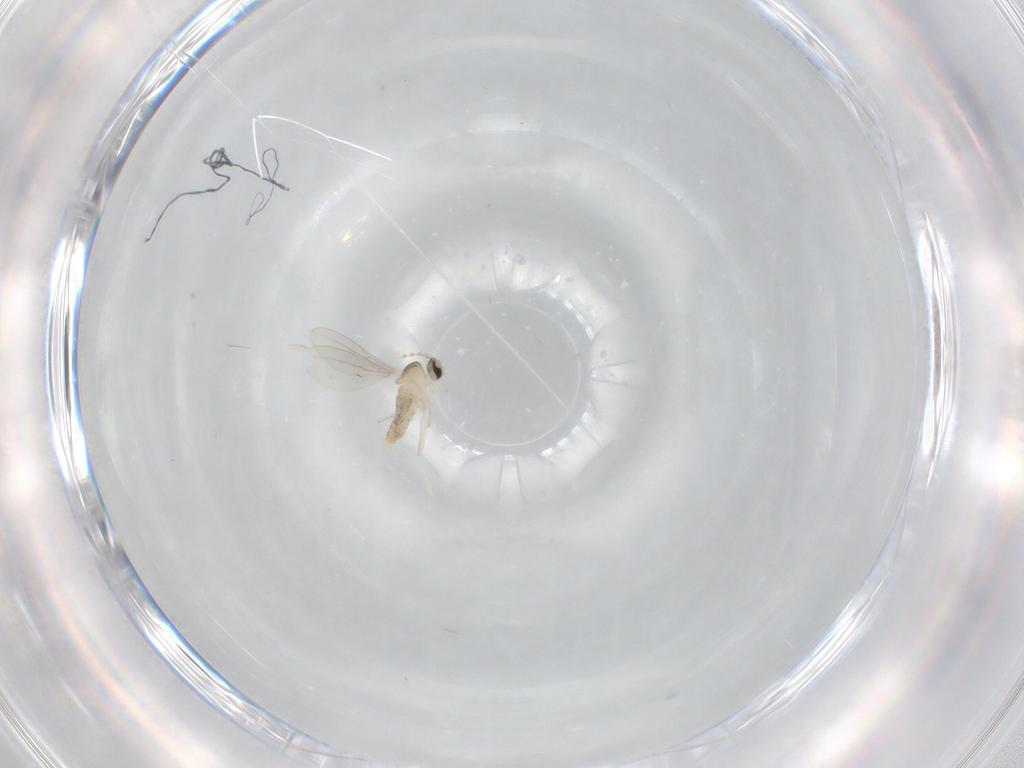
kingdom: Animalia
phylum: Arthropoda
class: Insecta
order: Diptera
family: Cecidomyiidae
